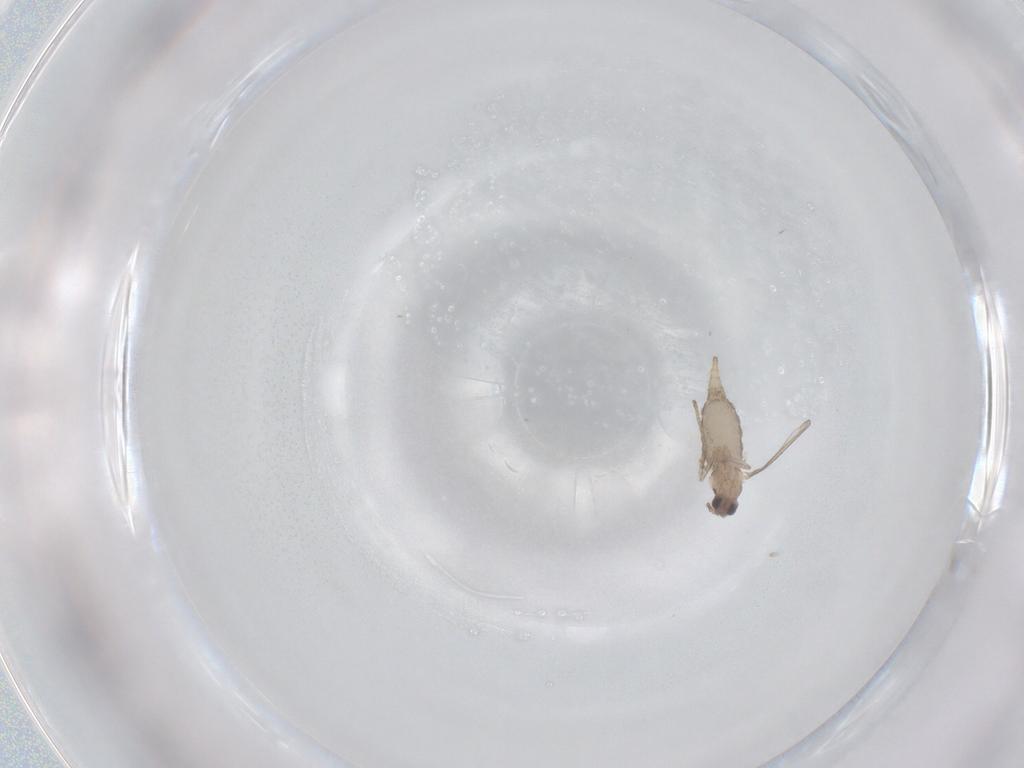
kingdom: Animalia
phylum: Arthropoda
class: Insecta
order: Diptera
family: Cecidomyiidae
